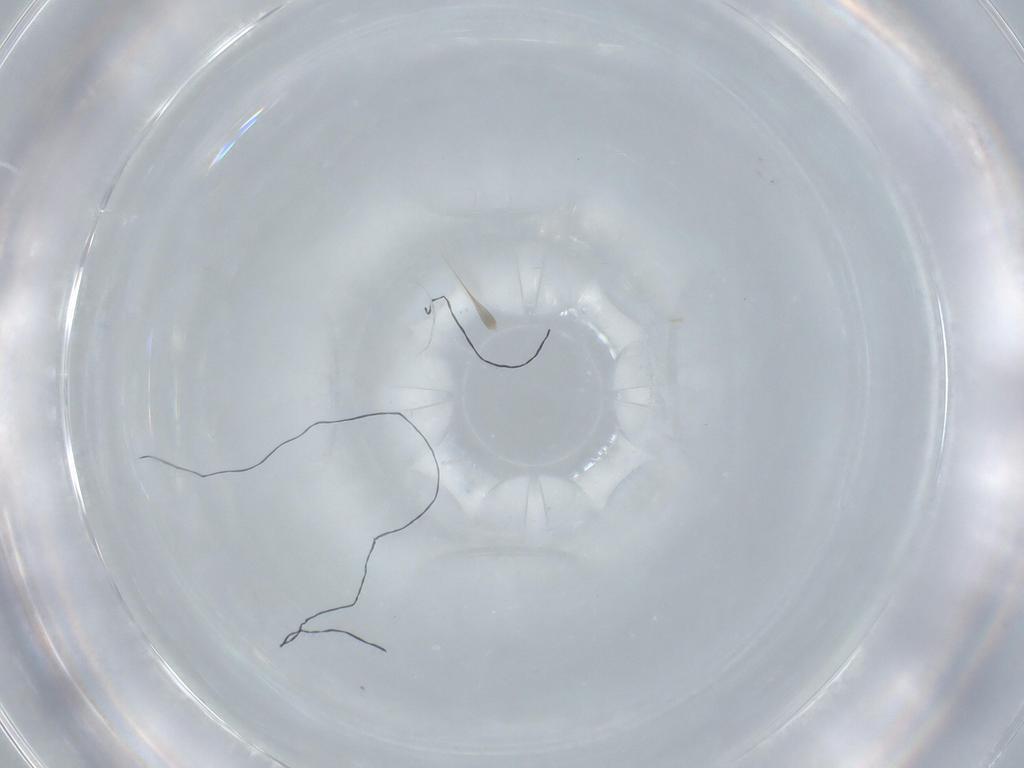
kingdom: Animalia
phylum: Arthropoda
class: Insecta
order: Diptera
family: Cecidomyiidae
